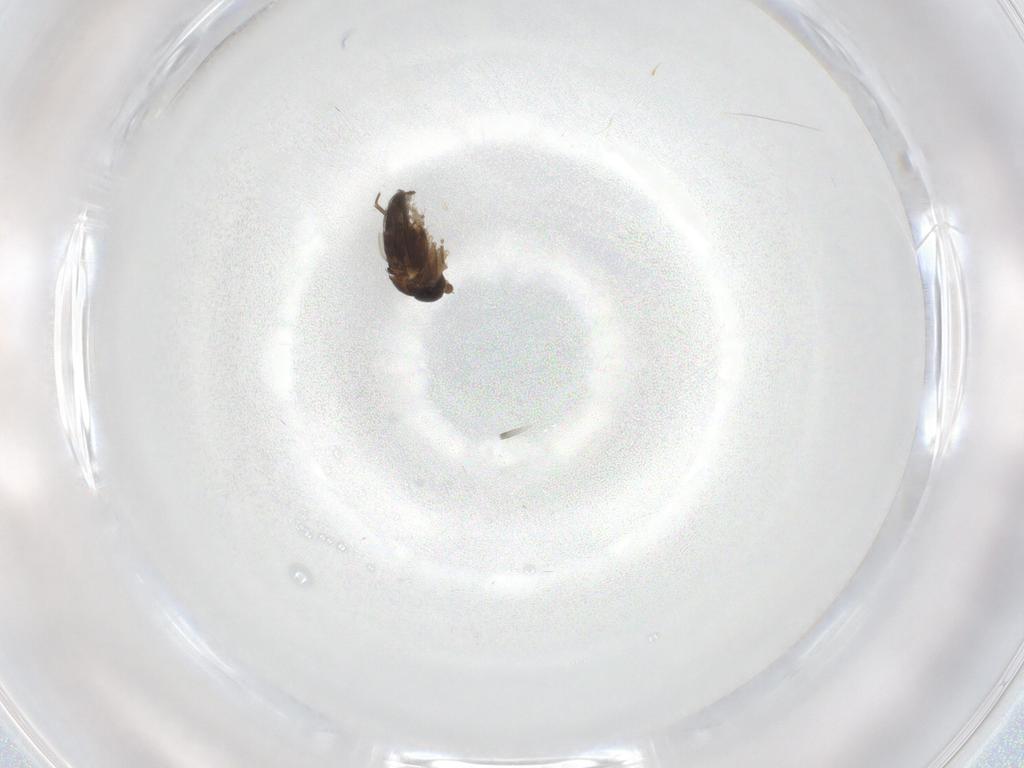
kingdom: Animalia
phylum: Arthropoda
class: Insecta
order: Diptera
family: Phoridae
